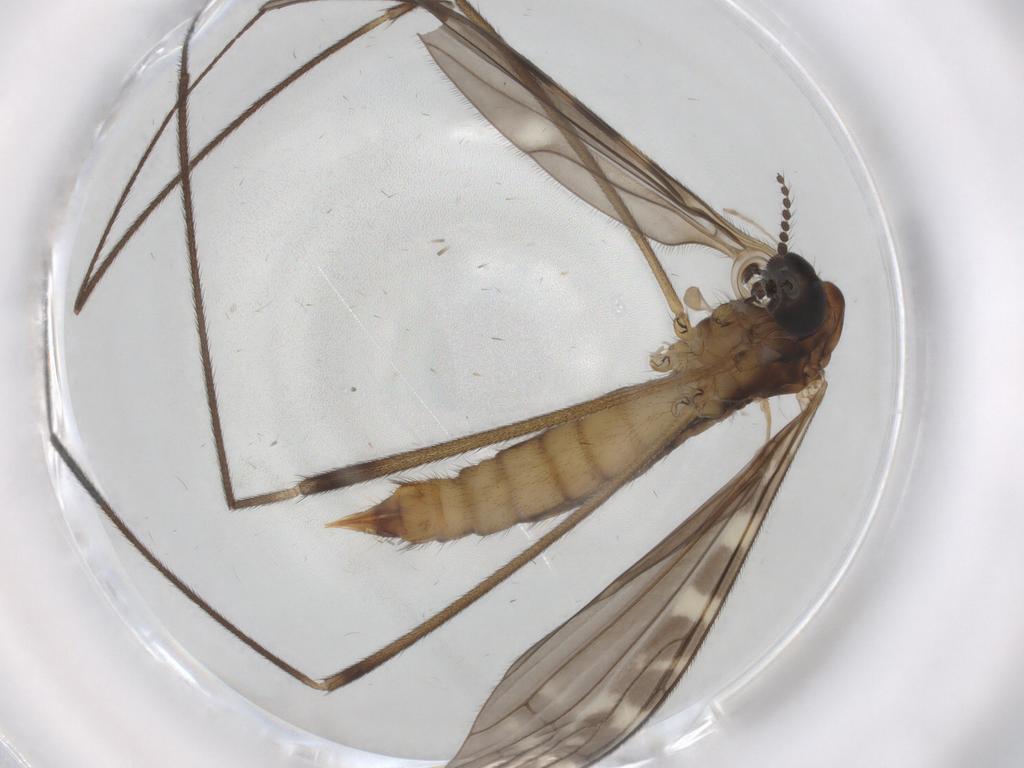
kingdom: Animalia
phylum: Arthropoda
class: Insecta
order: Diptera
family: Limoniidae
